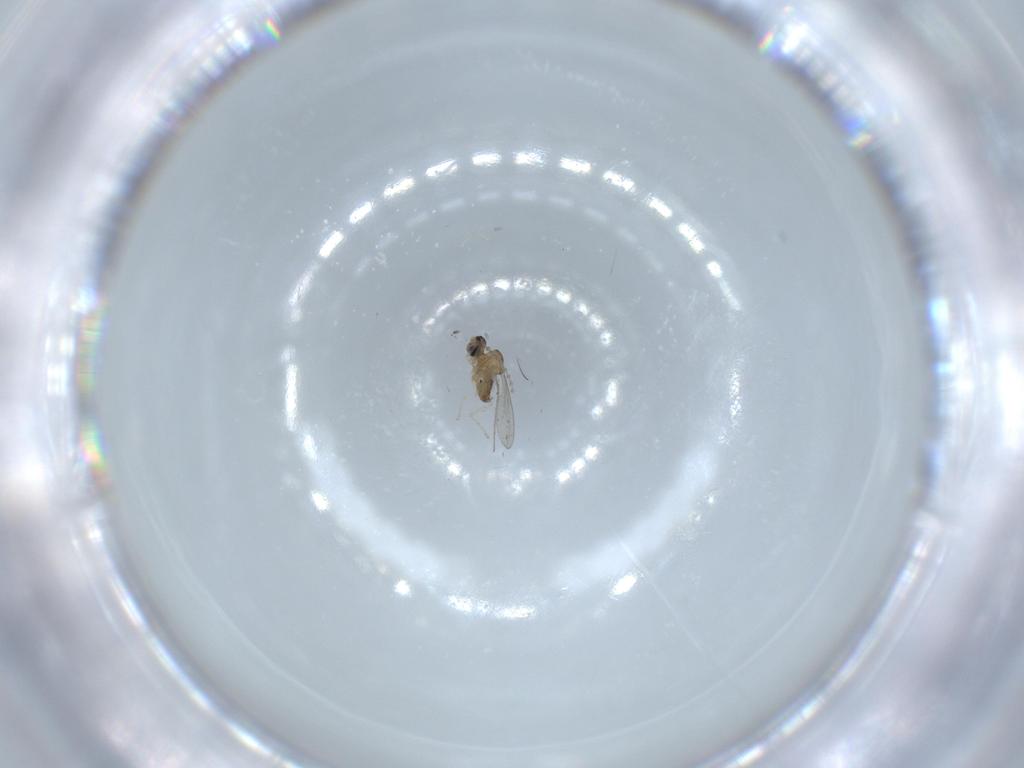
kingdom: Animalia
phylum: Arthropoda
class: Insecta
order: Diptera
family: Cecidomyiidae
